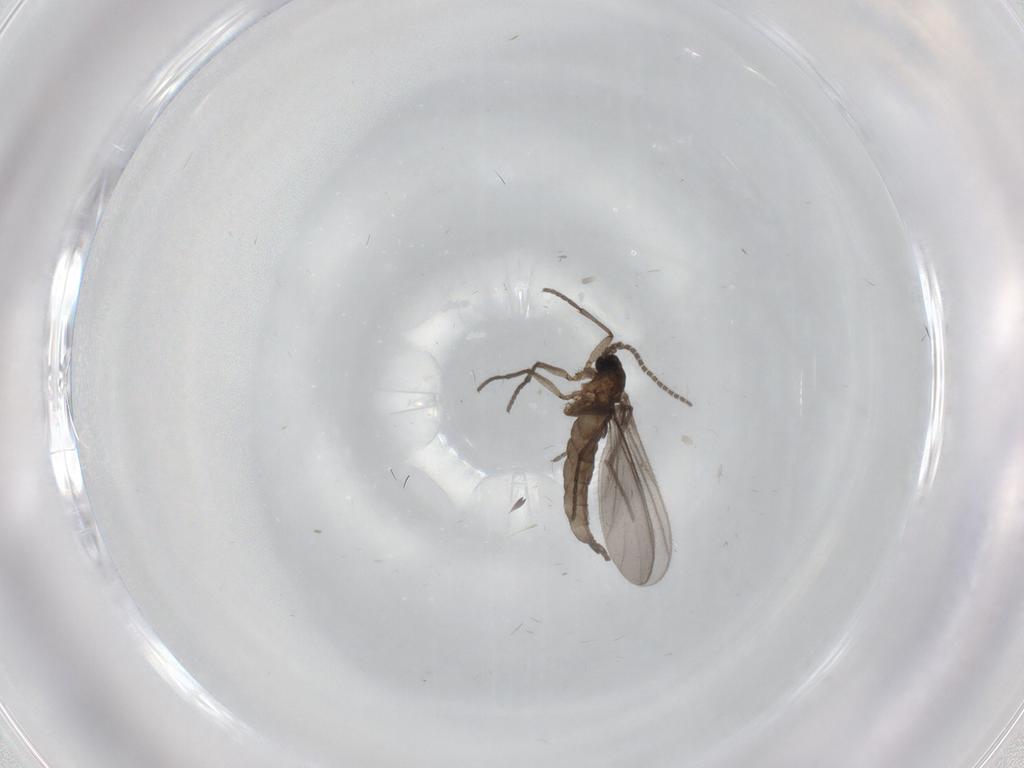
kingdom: Animalia
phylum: Arthropoda
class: Insecta
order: Diptera
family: Sciaridae
